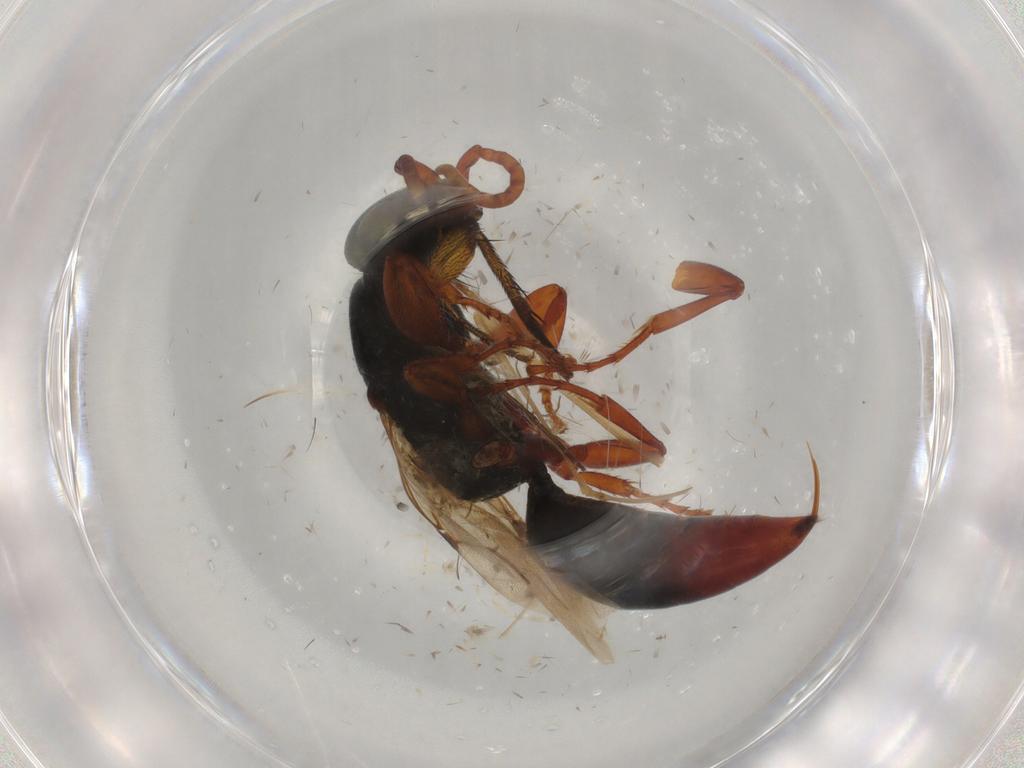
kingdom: Animalia
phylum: Arthropoda
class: Insecta
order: Hymenoptera
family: Bethylidae
